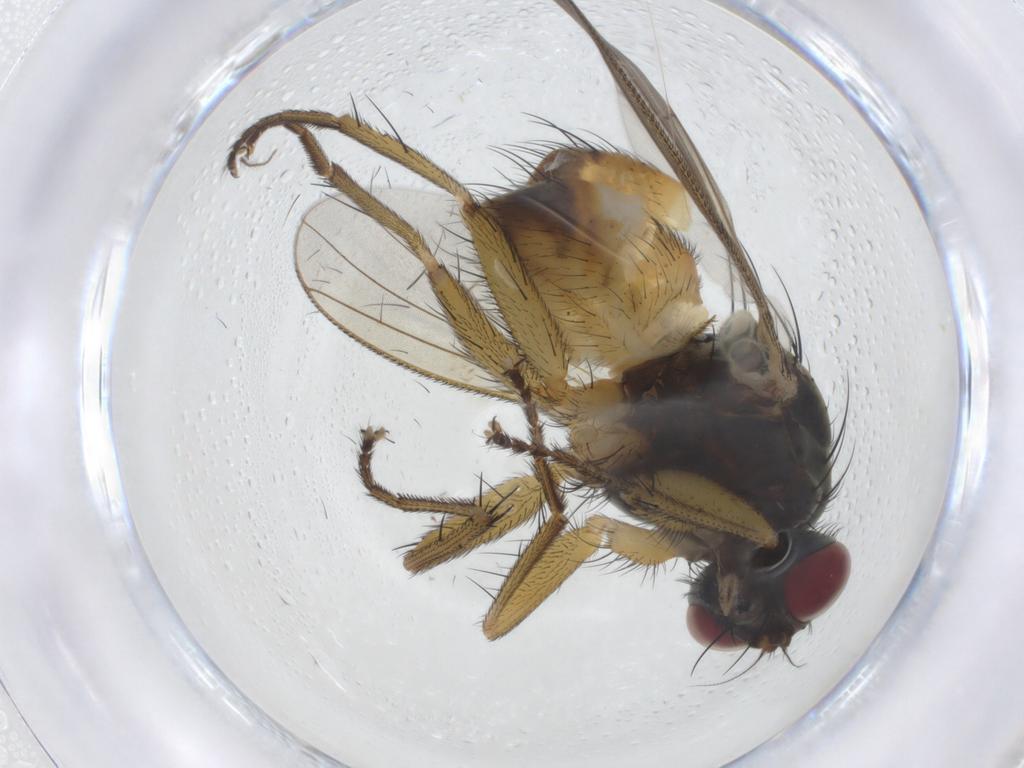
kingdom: Animalia
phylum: Arthropoda
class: Insecta
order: Diptera
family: Muscidae
